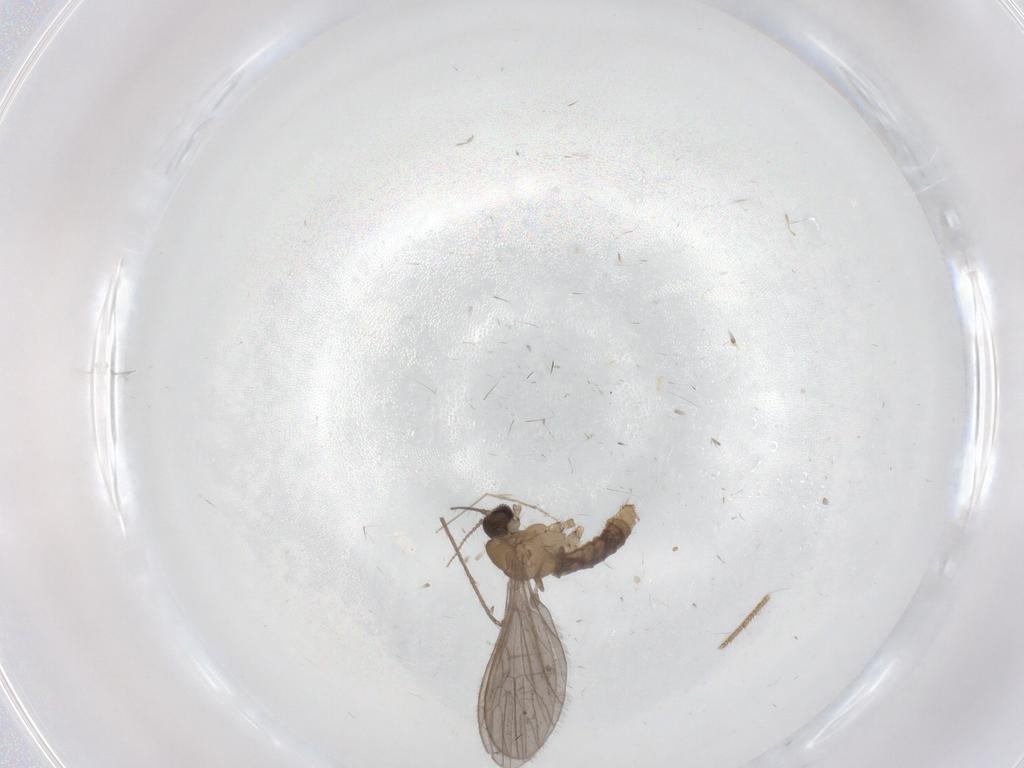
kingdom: Animalia
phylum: Arthropoda
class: Insecta
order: Diptera
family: Limoniidae
